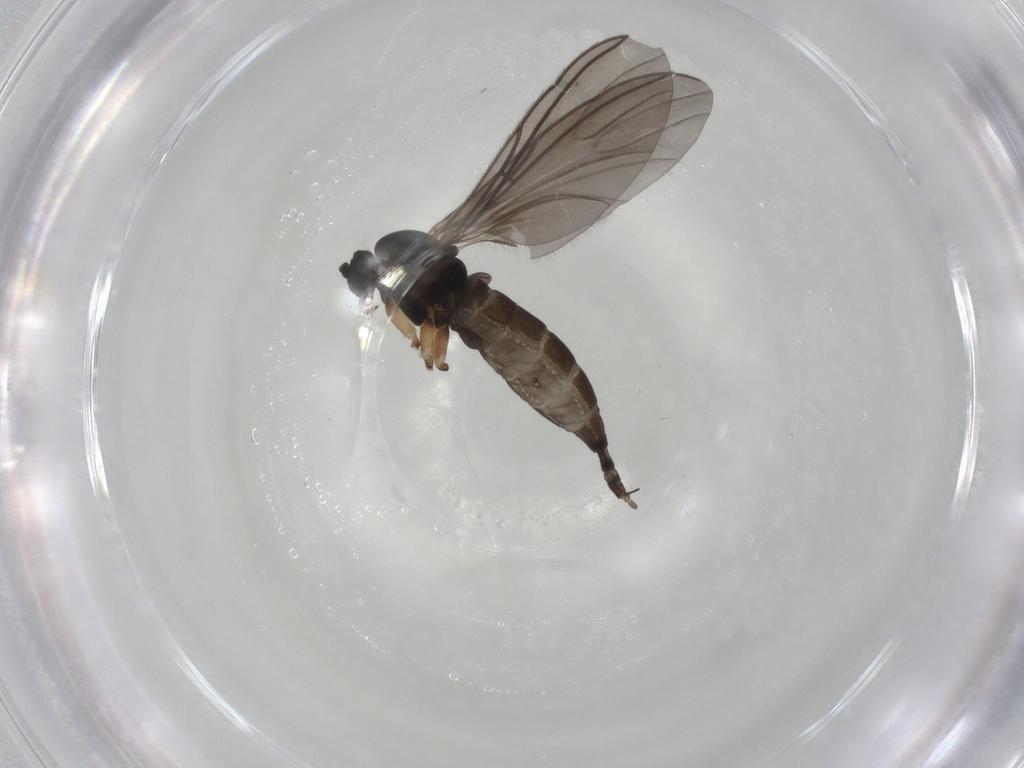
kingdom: Animalia
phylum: Arthropoda
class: Insecta
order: Diptera
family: Sciaridae
